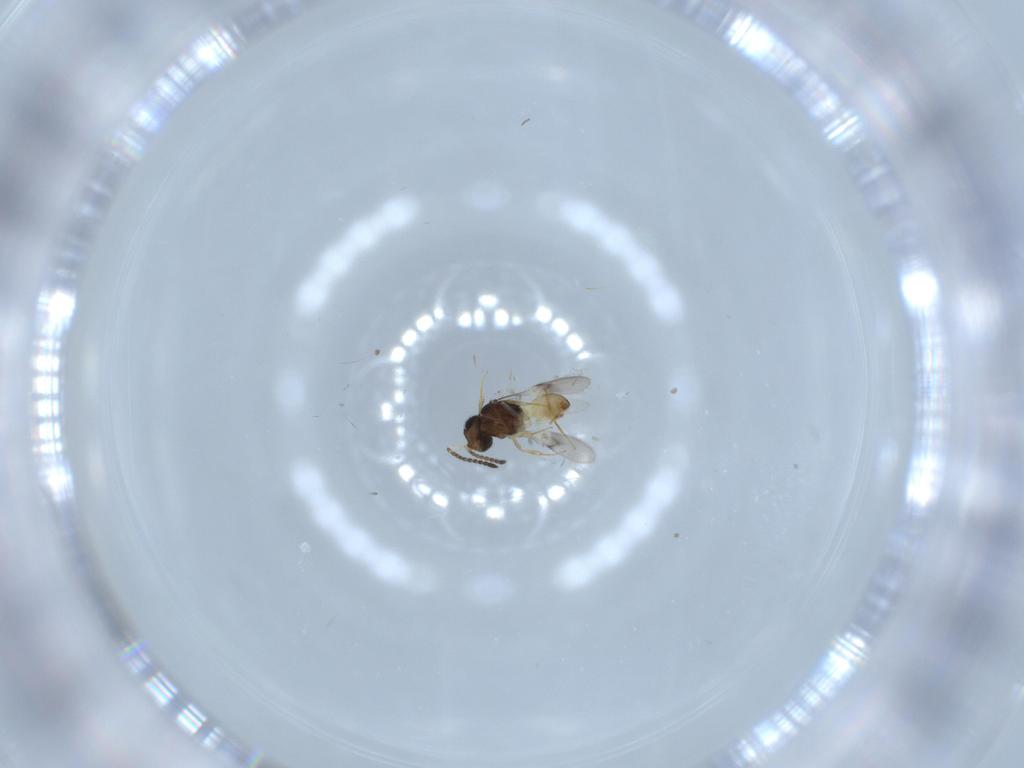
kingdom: Animalia
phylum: Arthropoda
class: Insecta
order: Hymenoptera
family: Scelionidae
